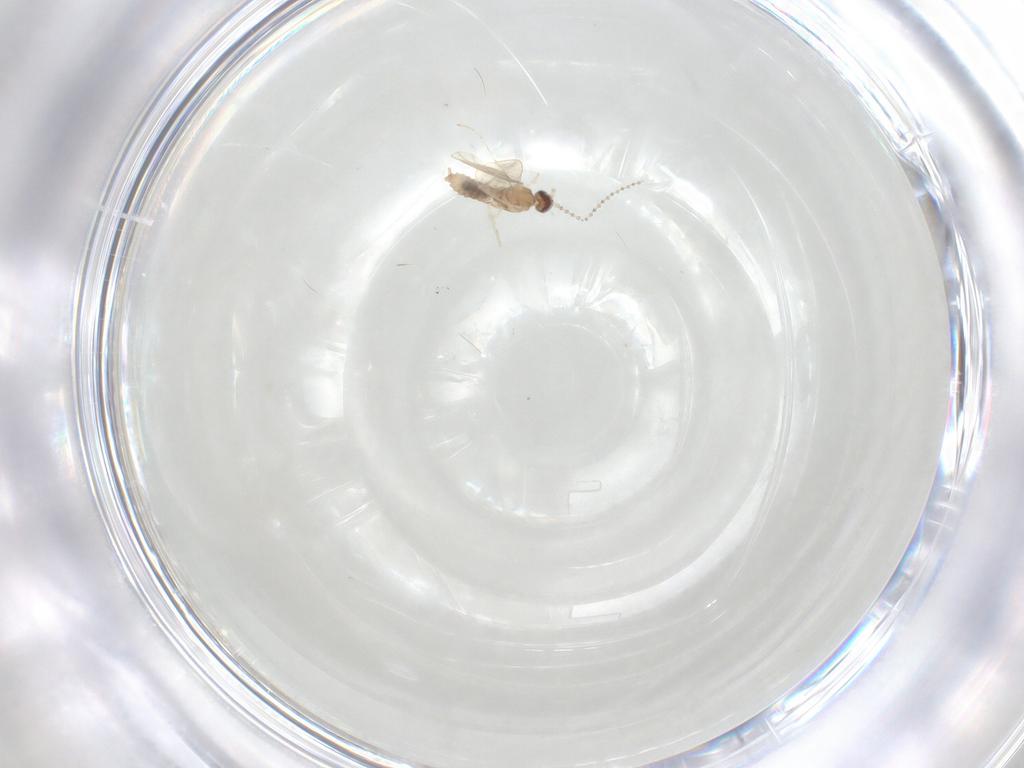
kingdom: Animalia
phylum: Arthropoda
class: Insecta
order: Diptera
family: Cecidomyiidae
